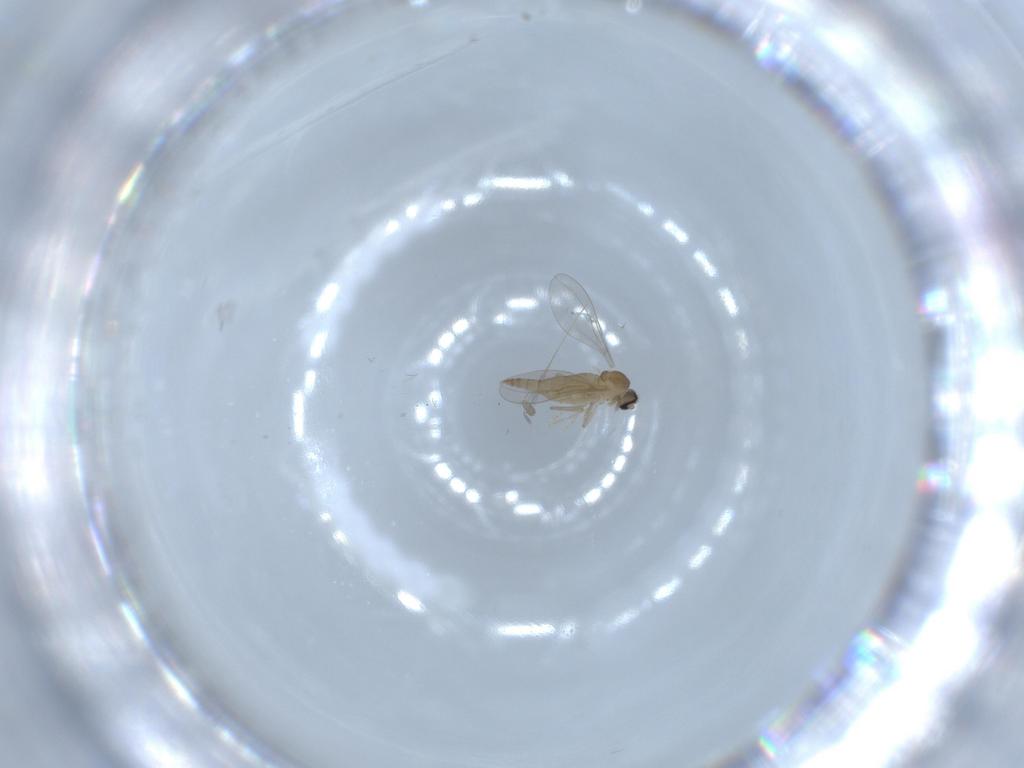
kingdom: Animalia
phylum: Arthropoda
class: Insecta
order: Diptera
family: Cecidomyiidae
